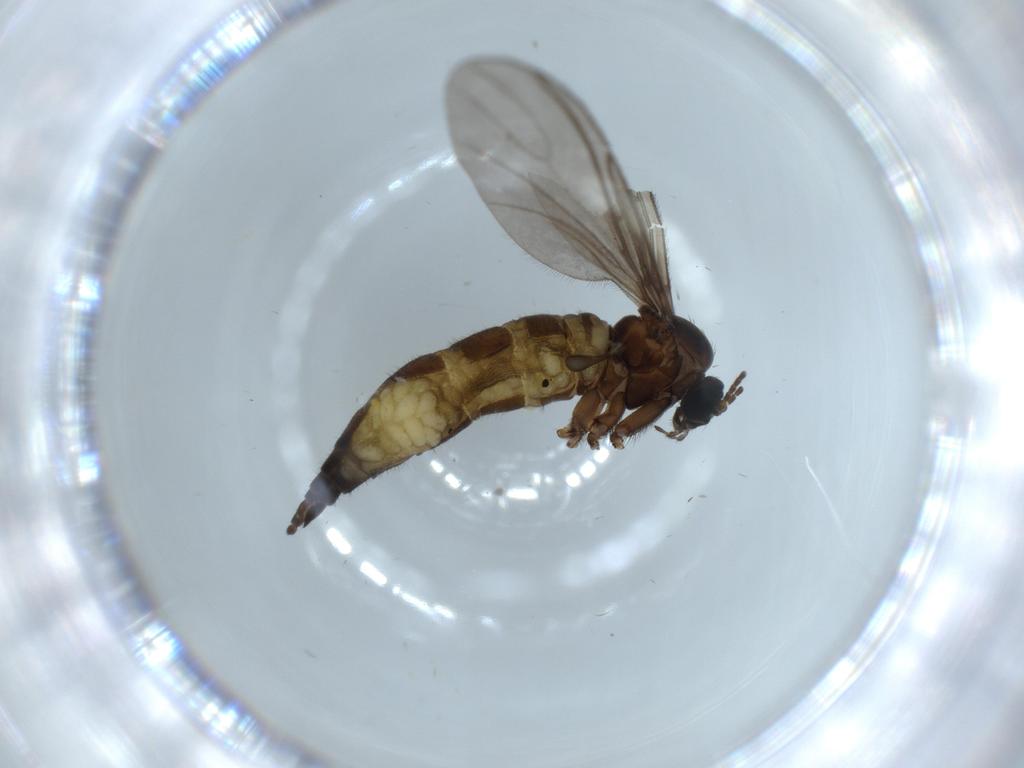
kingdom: Animalia
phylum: Arthropoda
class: Insecta
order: Diptera
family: Sciaridae
